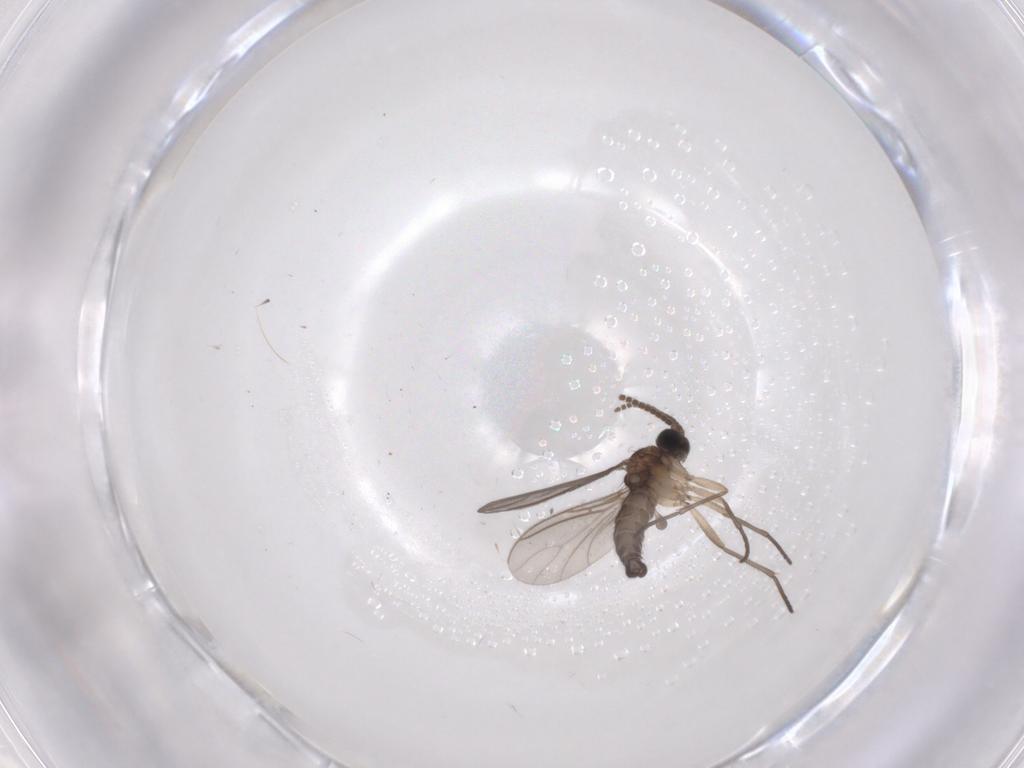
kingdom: Animalia
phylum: Arthropoda
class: Insecta
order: Diptera
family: Sciaridae
